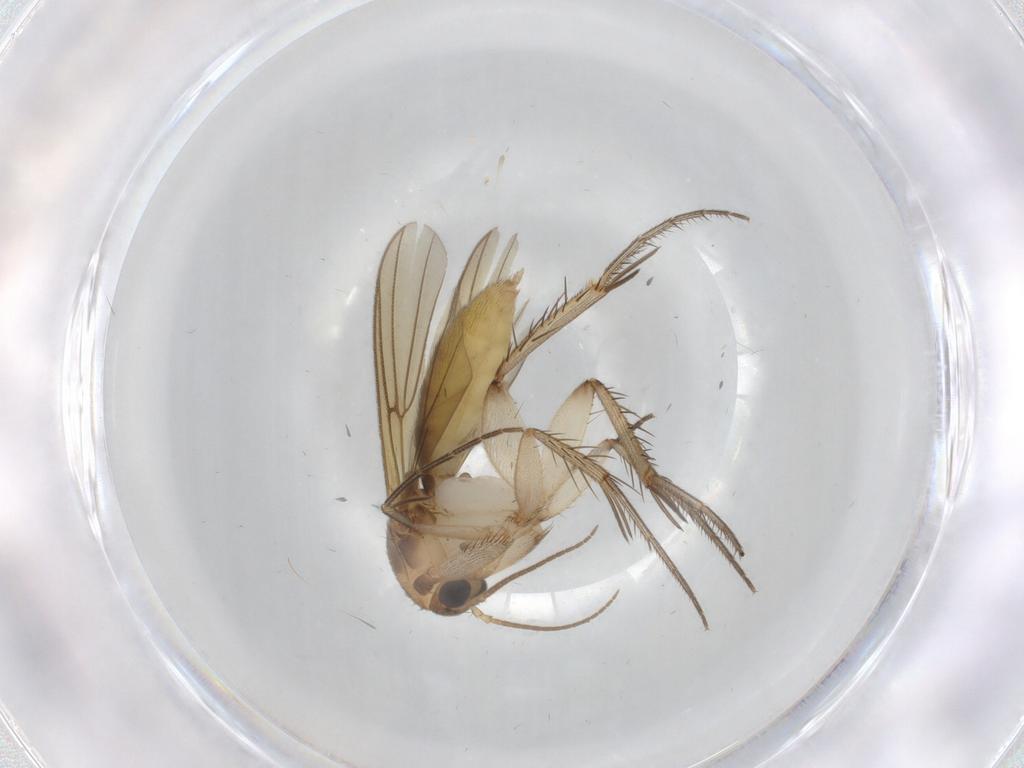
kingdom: Animalia
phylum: Arthropoda
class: Insecta
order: Diptera
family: Mycetophilidae
